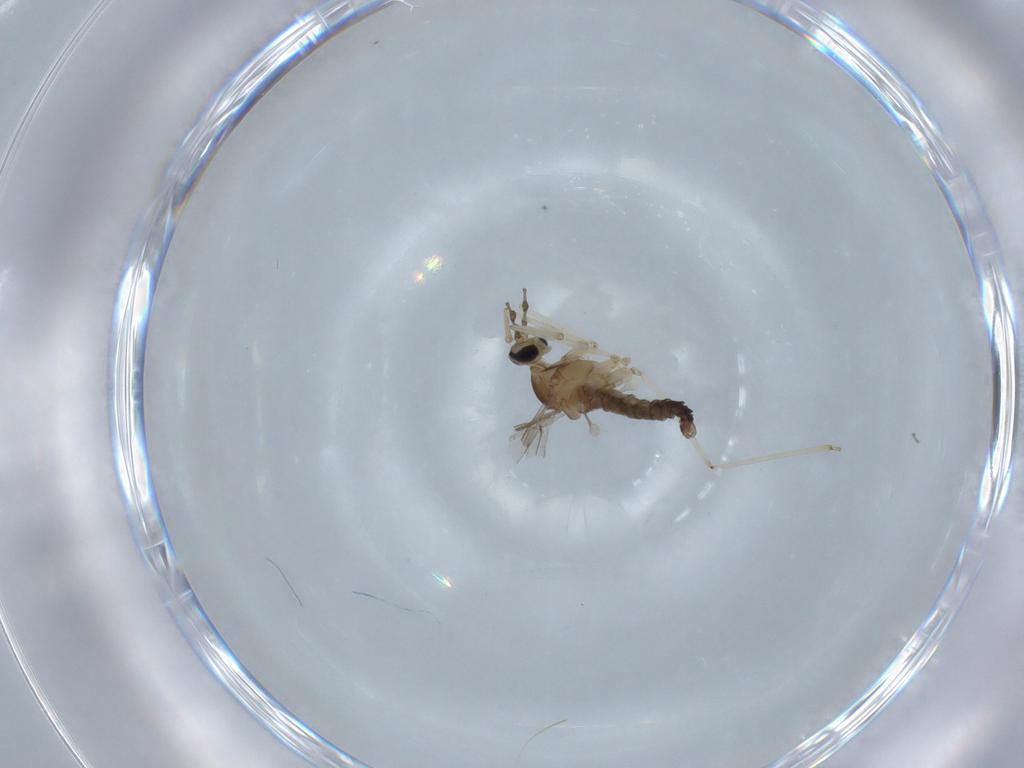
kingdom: Animalia
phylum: Arthropoda
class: Insecta
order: Diptera
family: Cecidomyiidae
